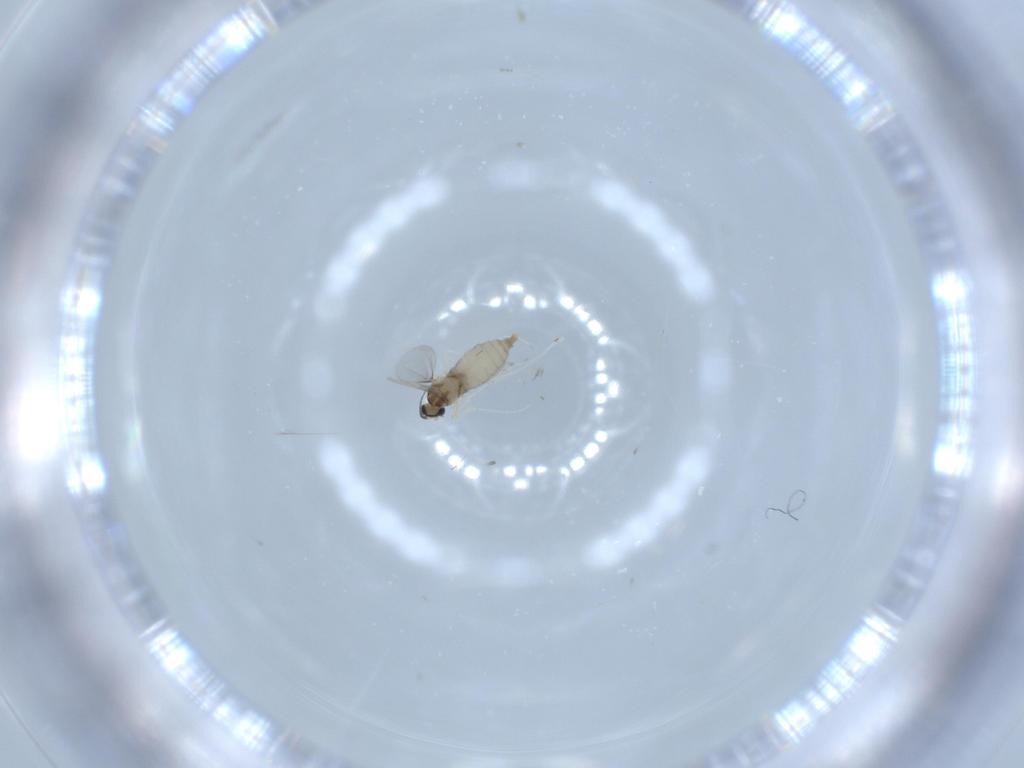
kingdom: Animalia
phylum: Arthropoda
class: Insecta
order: Diptera
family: Cecidomyiidae
